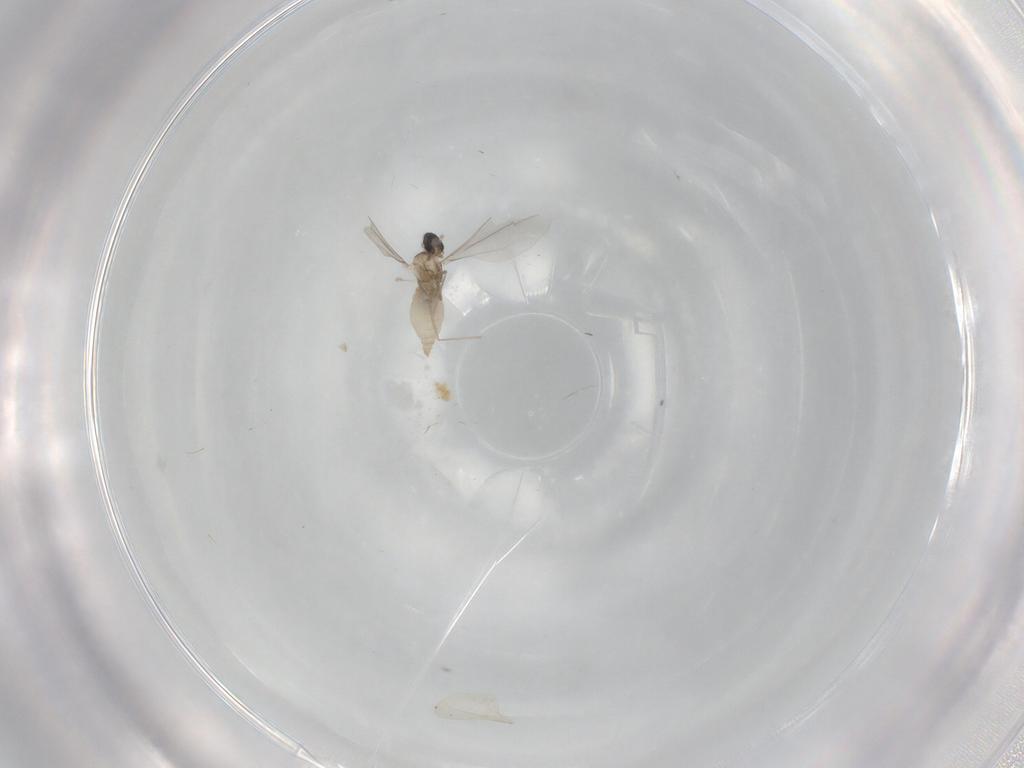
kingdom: Animalia
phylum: Arthropoda
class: Insecta
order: Diptera
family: Cecidomyiidae
